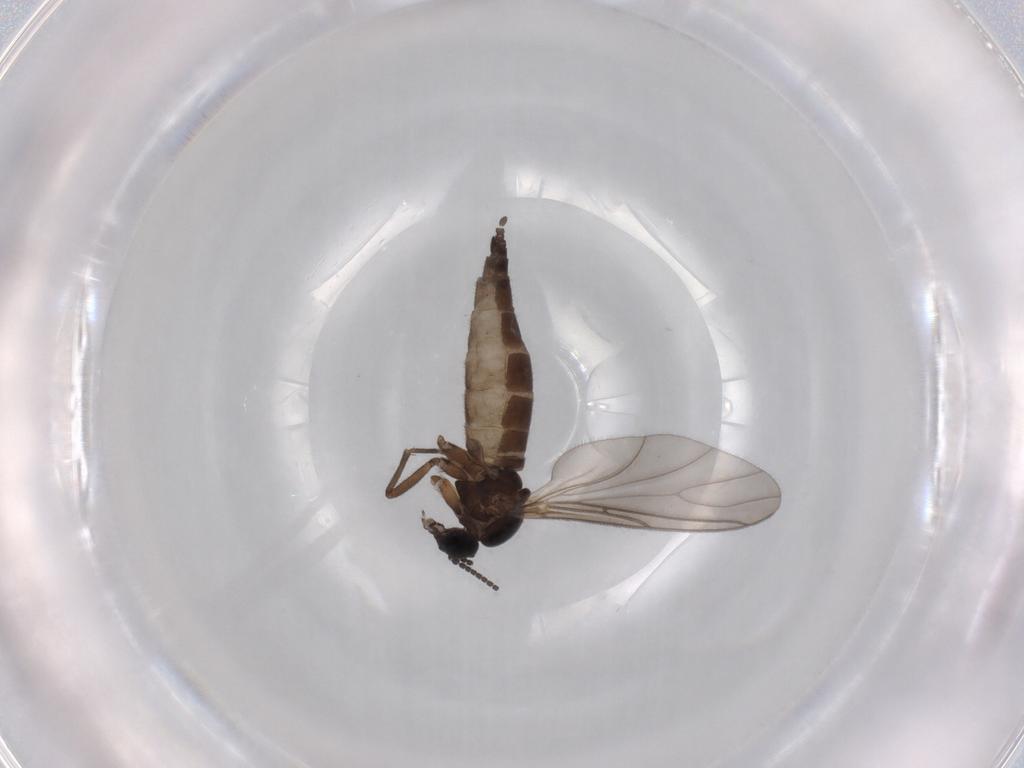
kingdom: Animalia
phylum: Arthropoda
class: Insecta
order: Diptera
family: Sciaridae
